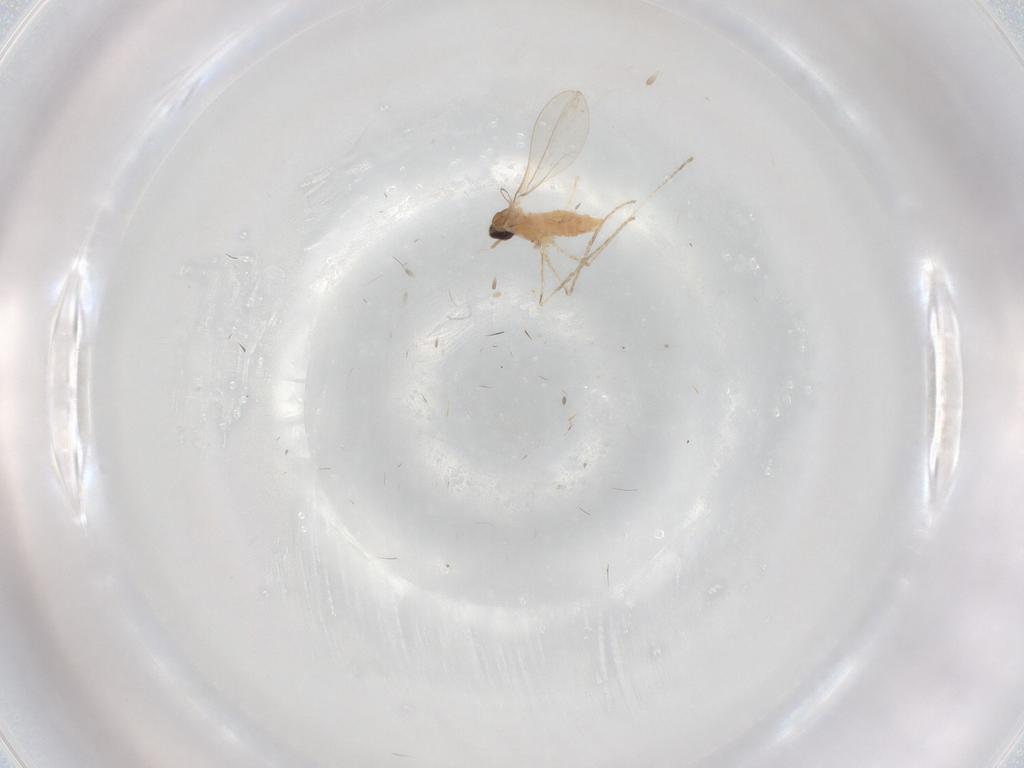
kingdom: Animalia
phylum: Arthropoda
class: Insecta
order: Diptera
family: Cecidomyiidae
